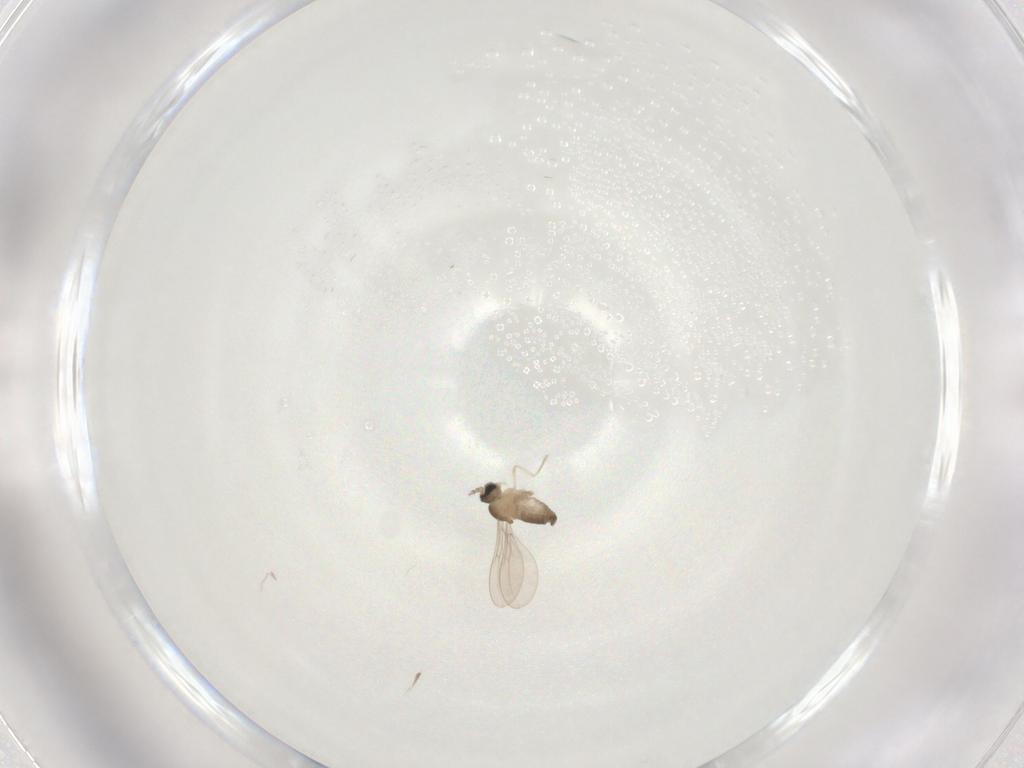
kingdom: Animalia
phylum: Arthropoda
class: Insecta
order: Diptera
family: Cecidomyiidae
